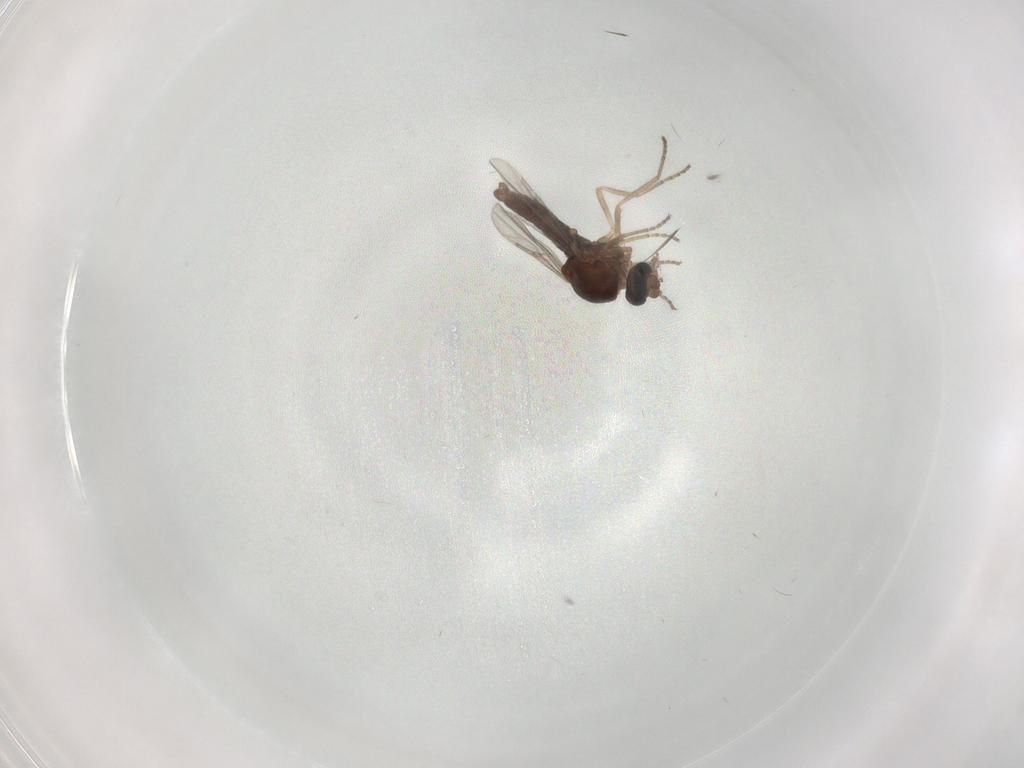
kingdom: Animalia
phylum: Arthropoda
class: Insecta
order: Diptera
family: Ceratopogonidae
